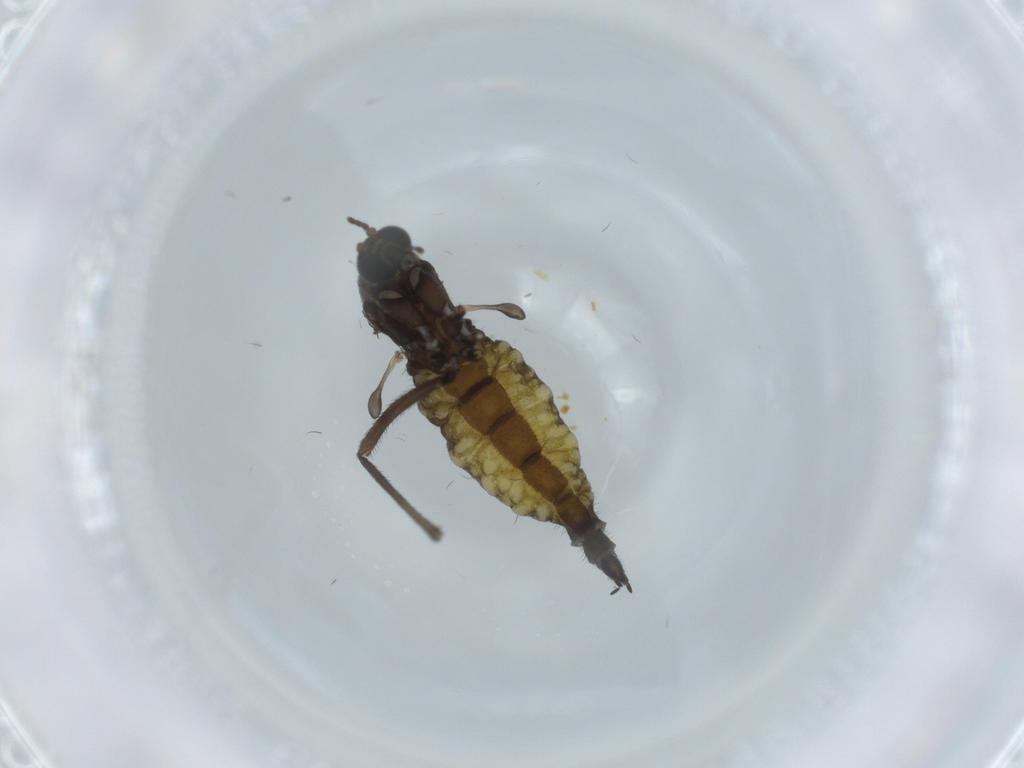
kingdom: Animalia
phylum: Arthropoda
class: Insecta
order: Diptera
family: Sciaridae
